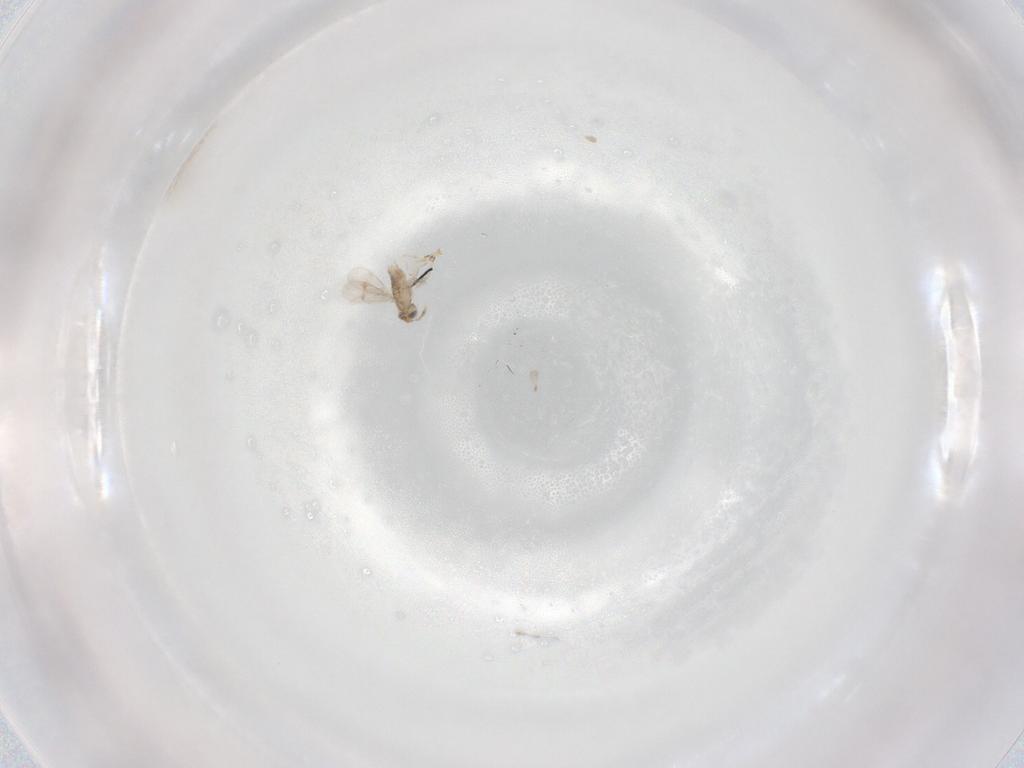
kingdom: Animalia
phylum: Arthropoda
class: Insecta
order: Hymenoptera
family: Aphelinidae
